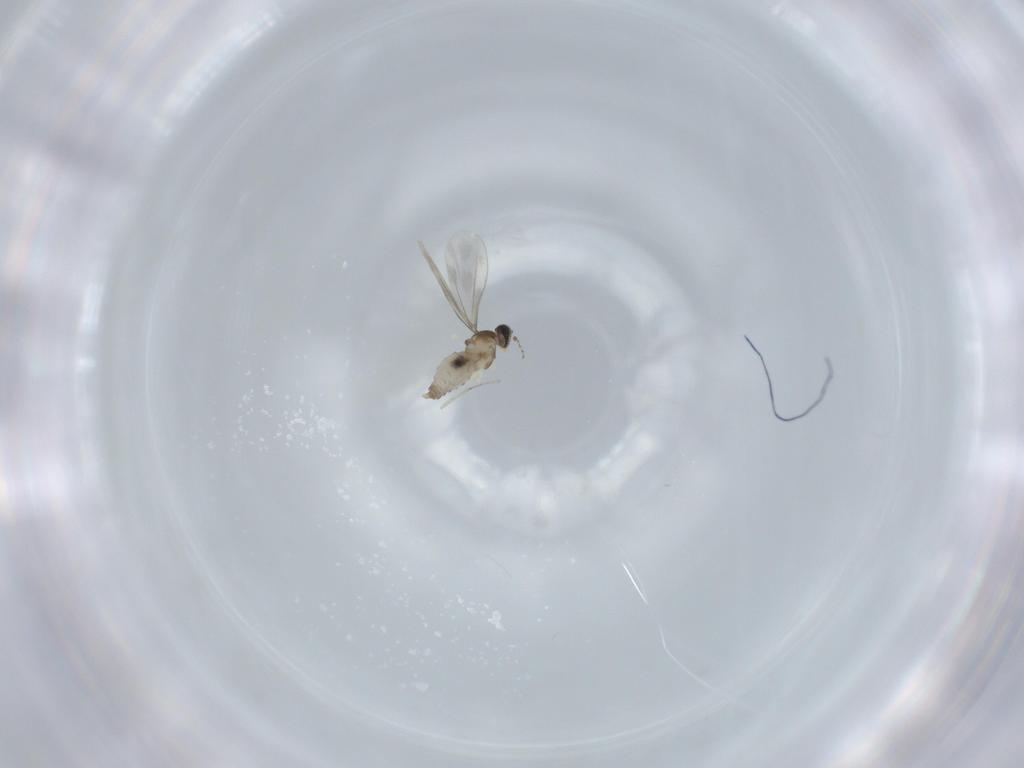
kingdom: Animalia
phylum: Arthropoda
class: Insecta
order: Diptera
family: Cecidomyiidae
